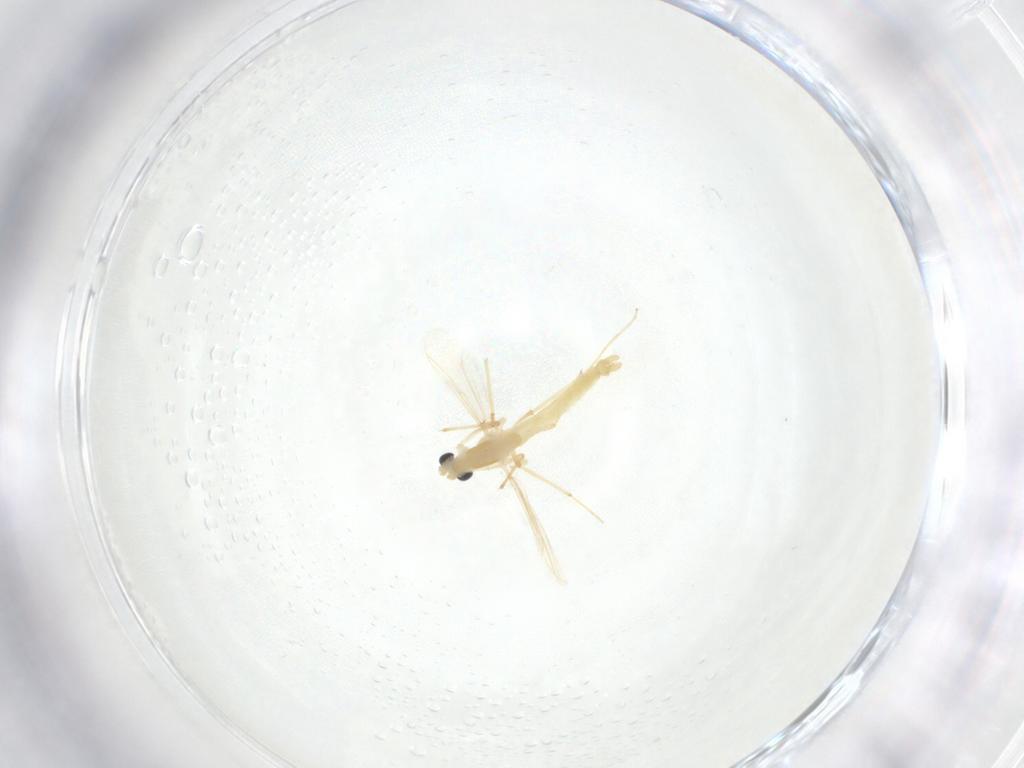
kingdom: Animalia
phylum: Arthropoda
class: Insecta
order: Diptera
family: Chironomidae
